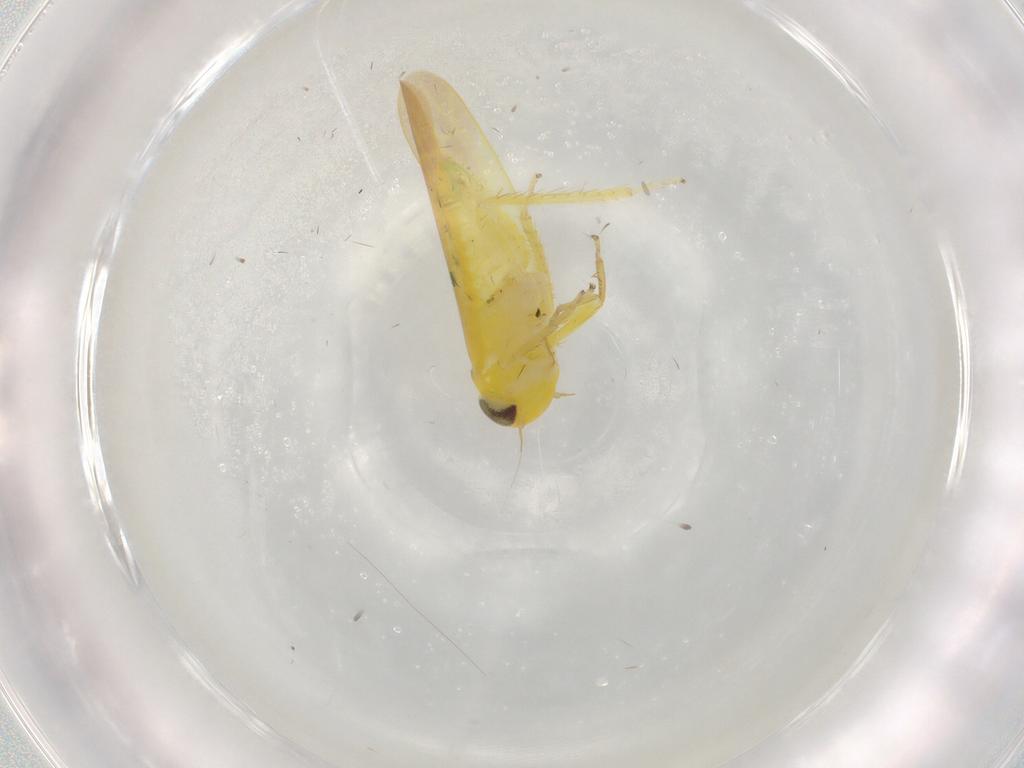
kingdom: Animalia
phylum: Arthropoda
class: Insecta
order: Hemiptera
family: Cicadellidae
